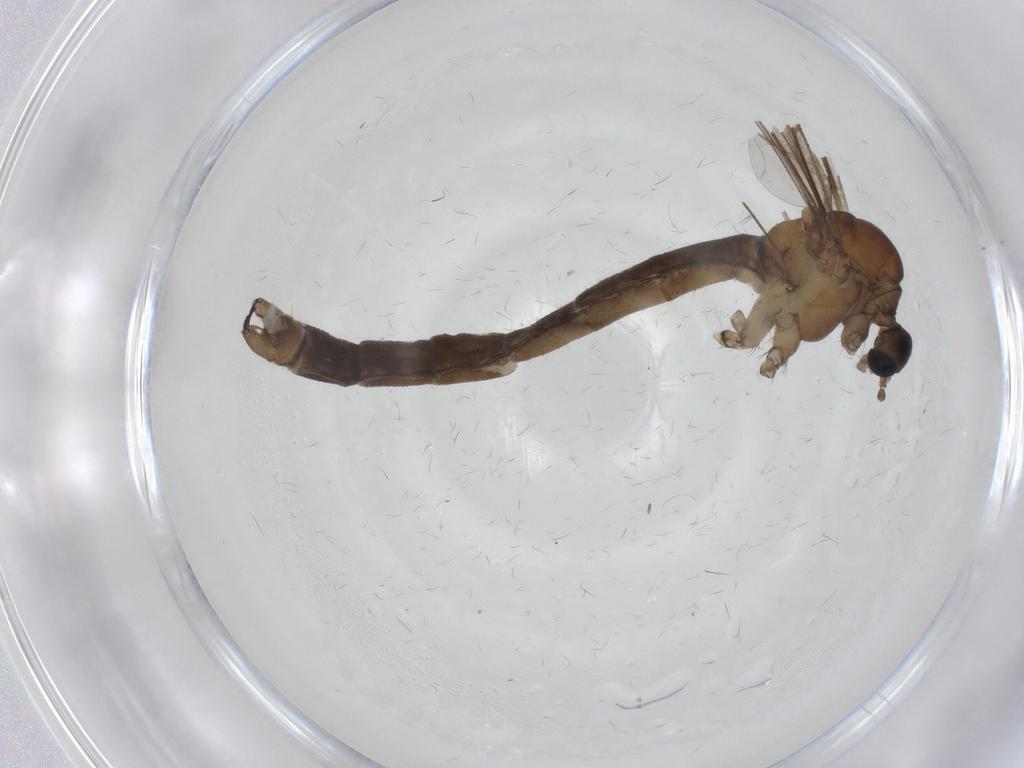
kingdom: Animalia
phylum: Arthropoda
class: Insecta
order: Diptera
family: Limoniidae
